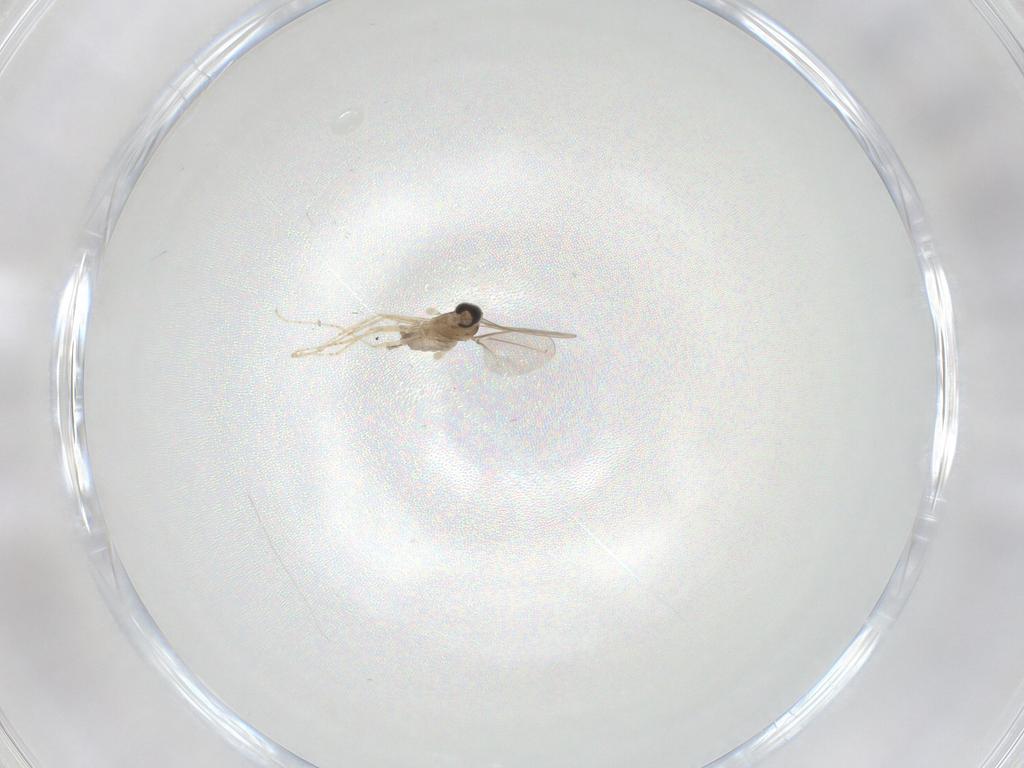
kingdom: Animalia
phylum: Arthropoda
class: Insecta
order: Diptera
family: Cecidomyiidae
